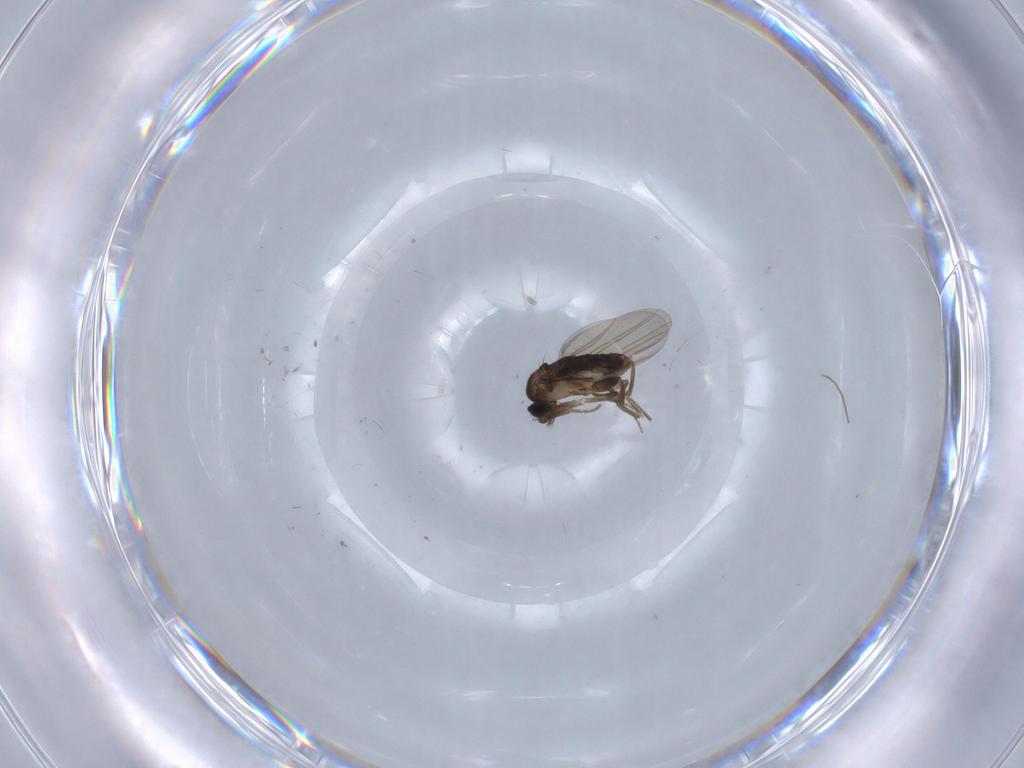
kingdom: Animalia
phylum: Arthropoda
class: Insecta
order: Diptera
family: Phoridae
